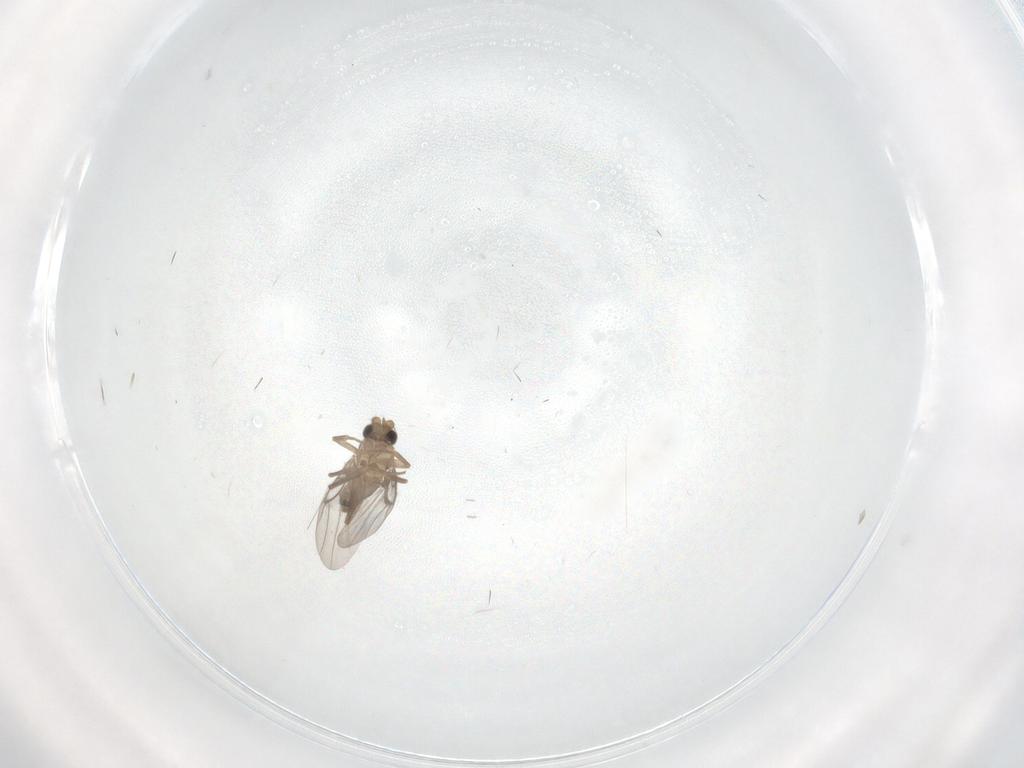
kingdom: Animalia
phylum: Arthropoda
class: Insecta
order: Diptera
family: Chironomidae
